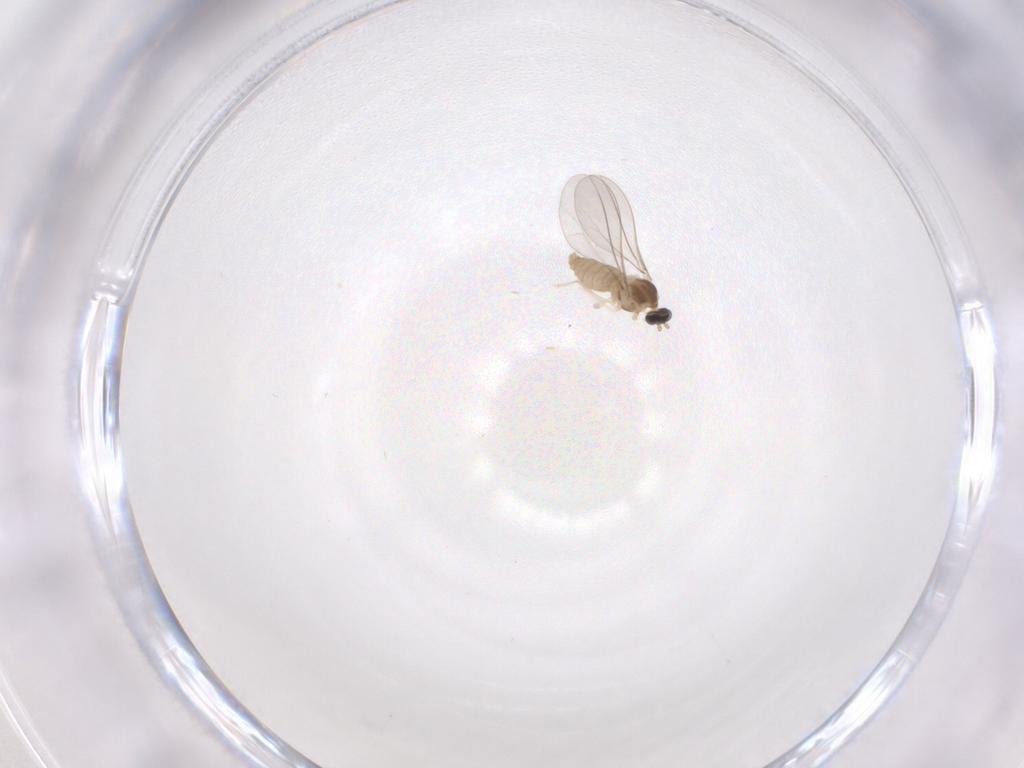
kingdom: Animalia
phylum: Arthropoda
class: Insecta
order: Diptera
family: Cecidomyiidae
